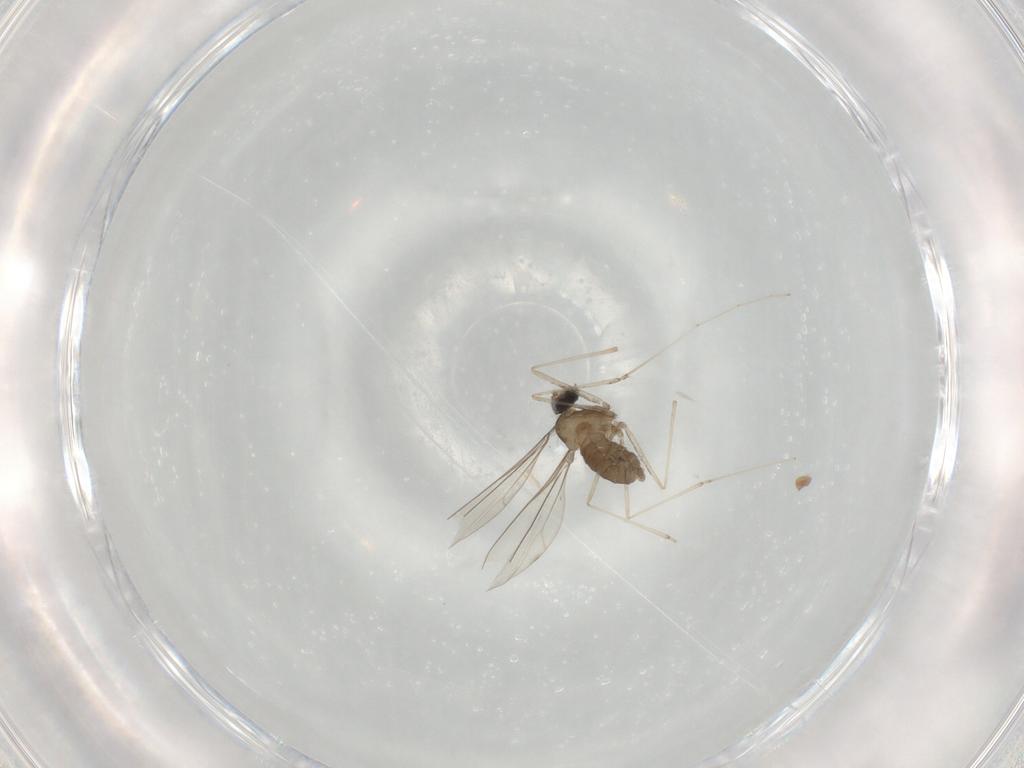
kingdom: Animalia
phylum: Arthropoda
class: Insecta
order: Diptera
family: Cecidomyiidae
